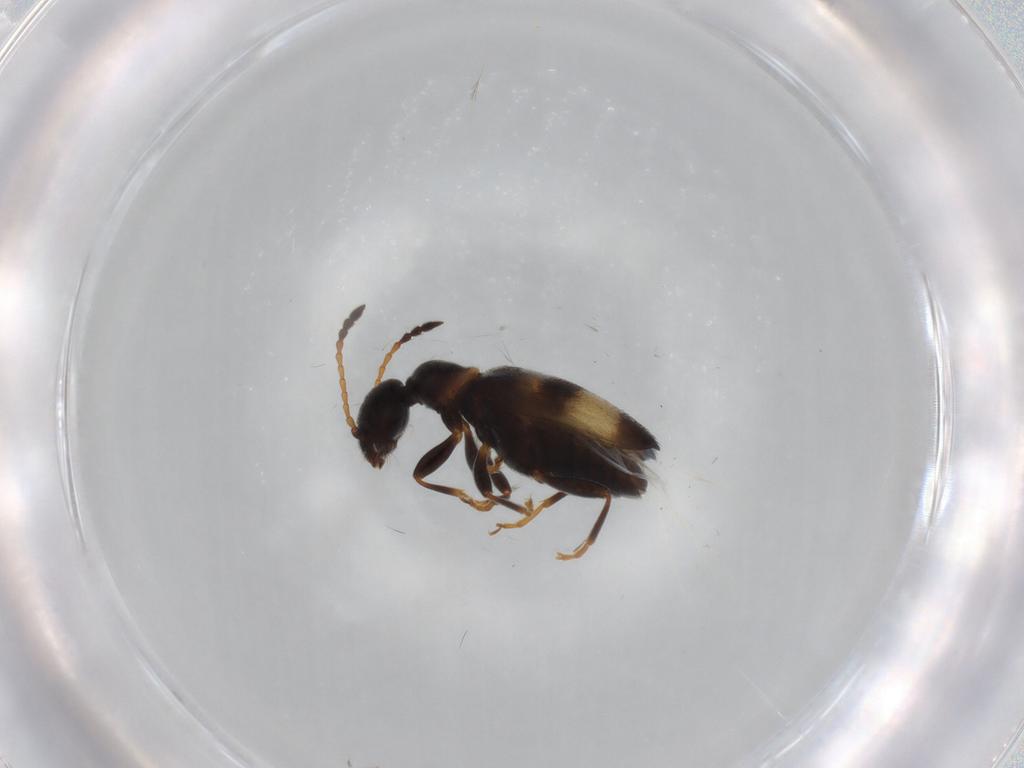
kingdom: Animalia
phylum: Arthropoda
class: Insecta
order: Coleoptera
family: Anthicidae
